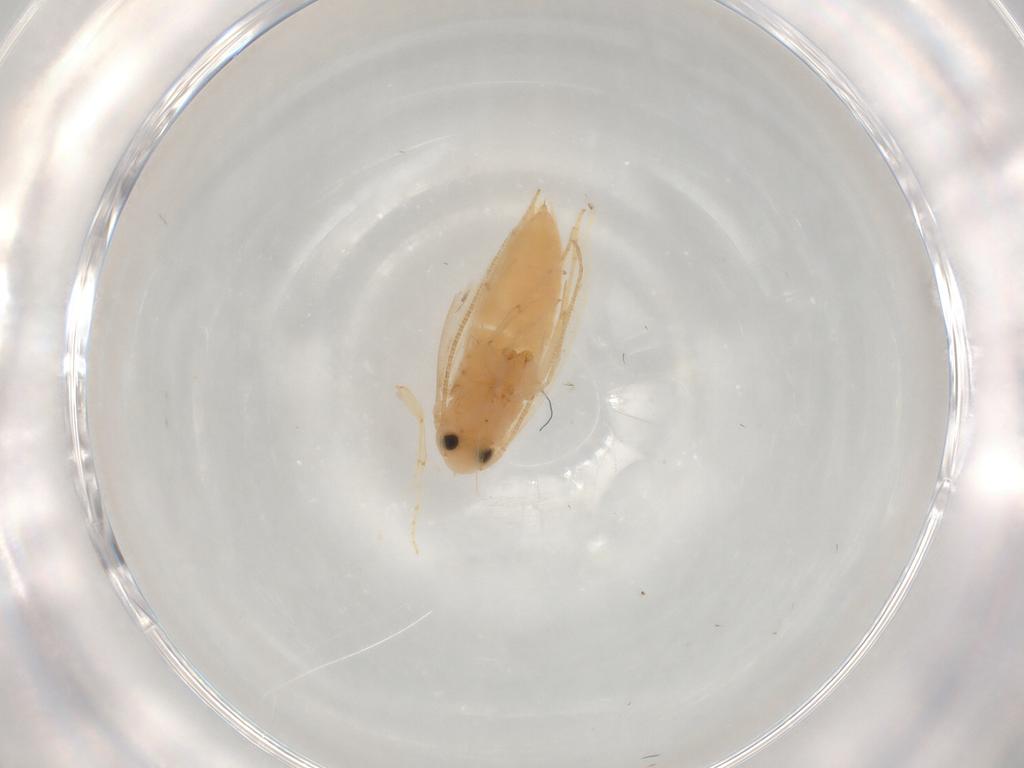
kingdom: Animalia
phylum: Arthropoda
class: Insecta
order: Lepidoptera
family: Gracillariidae
